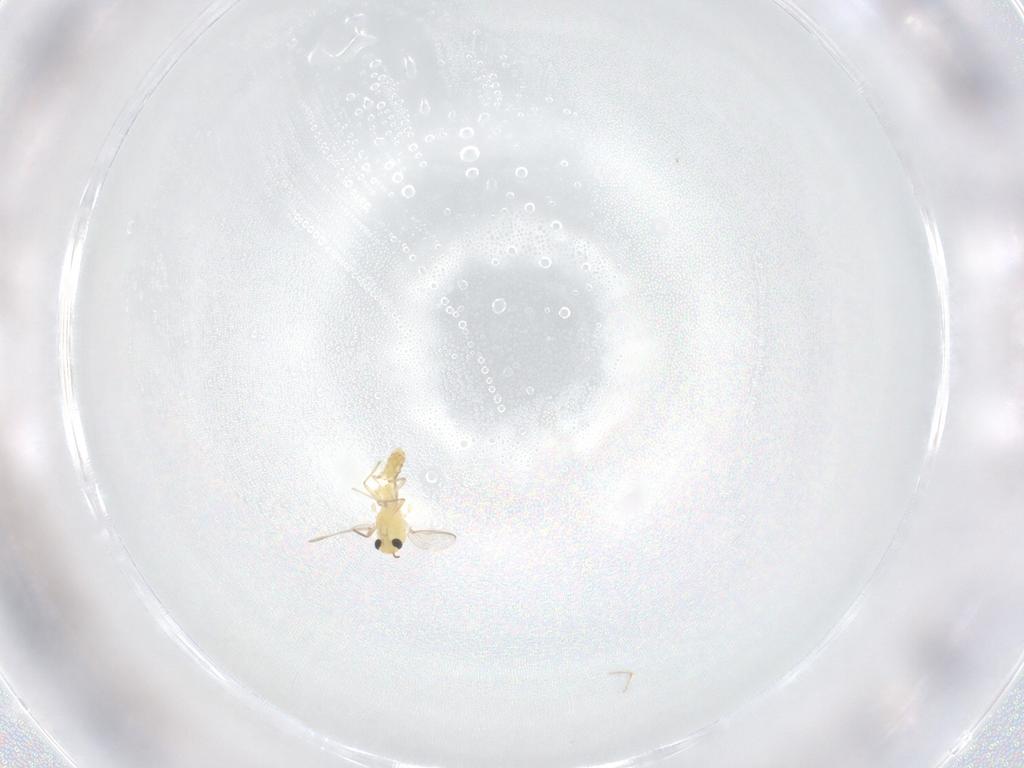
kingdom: Animalia
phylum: Arthropoda
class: Insecta
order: Diptera
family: Chironomidae
